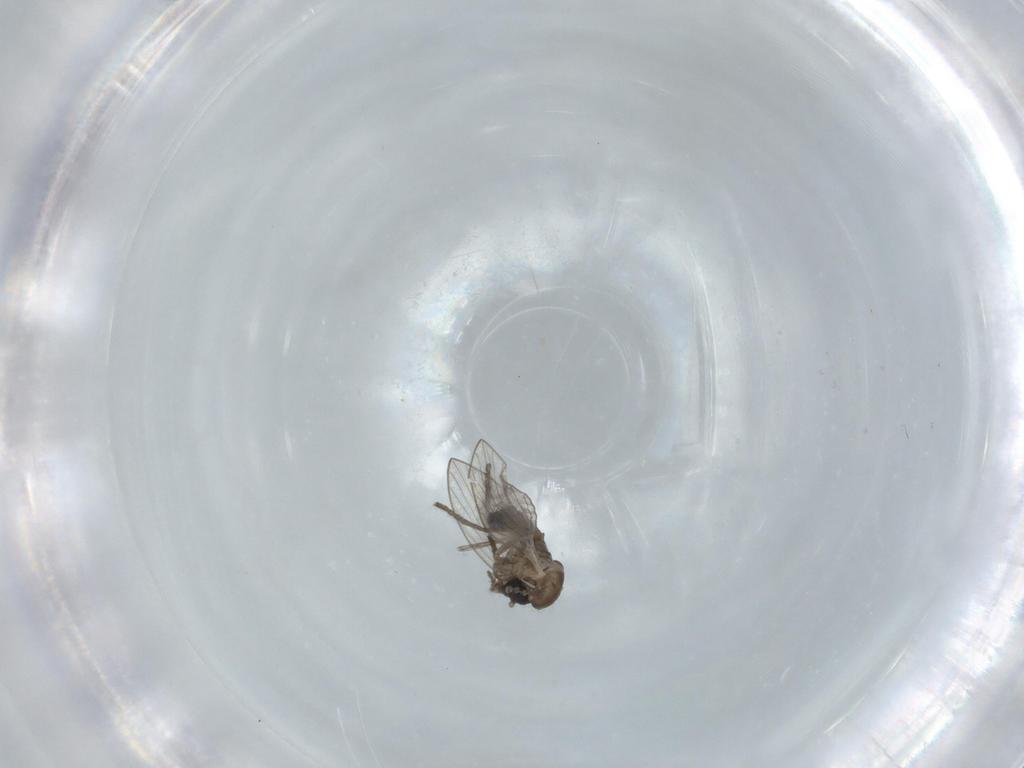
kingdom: Animalia
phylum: Arthropoda
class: Insecta
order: Diptera
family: Psychodidae
